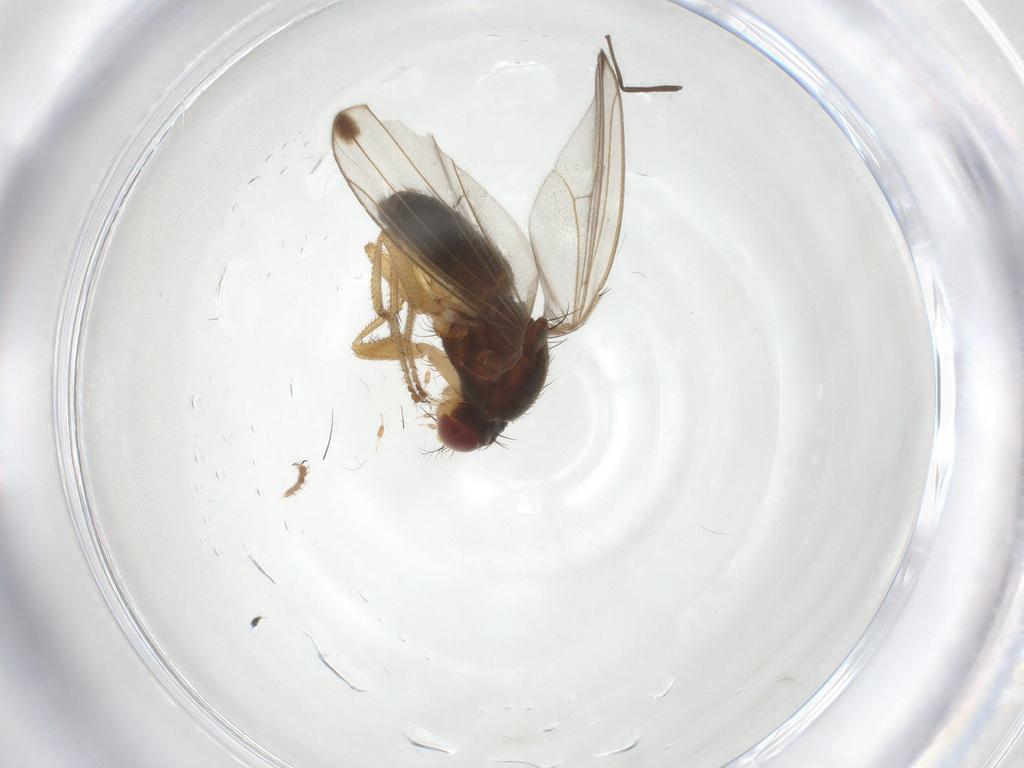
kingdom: Animalia
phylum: Arthropoda
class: Insecta
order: Diptera
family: Drosophilidae
